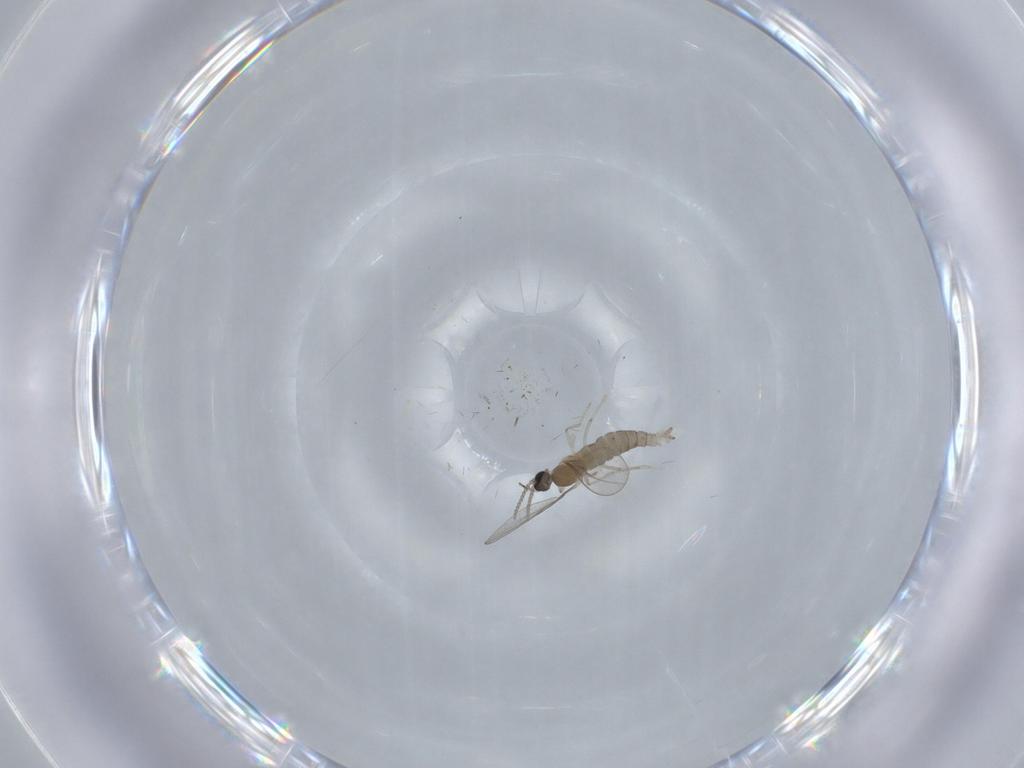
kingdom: Animalia
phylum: Arthropoda
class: Insecta
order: Diptera
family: Cecidomyiidae
